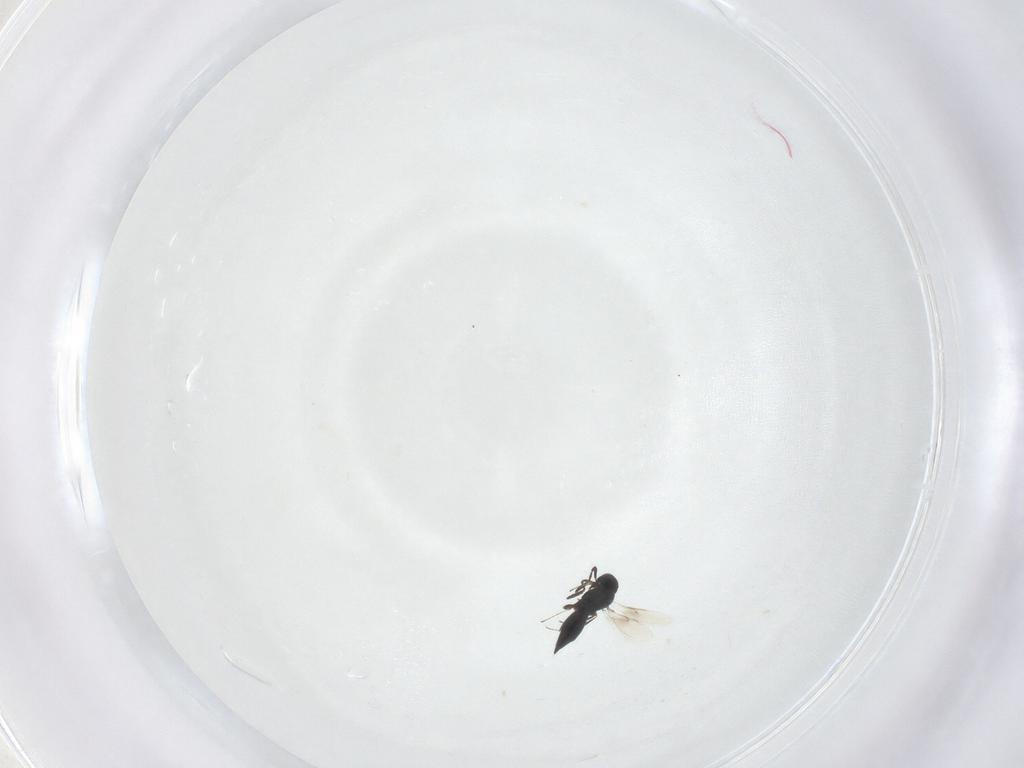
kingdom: Animalia
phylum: Arthropoda
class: Insecta
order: Hymenoptera
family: Scelionidae
